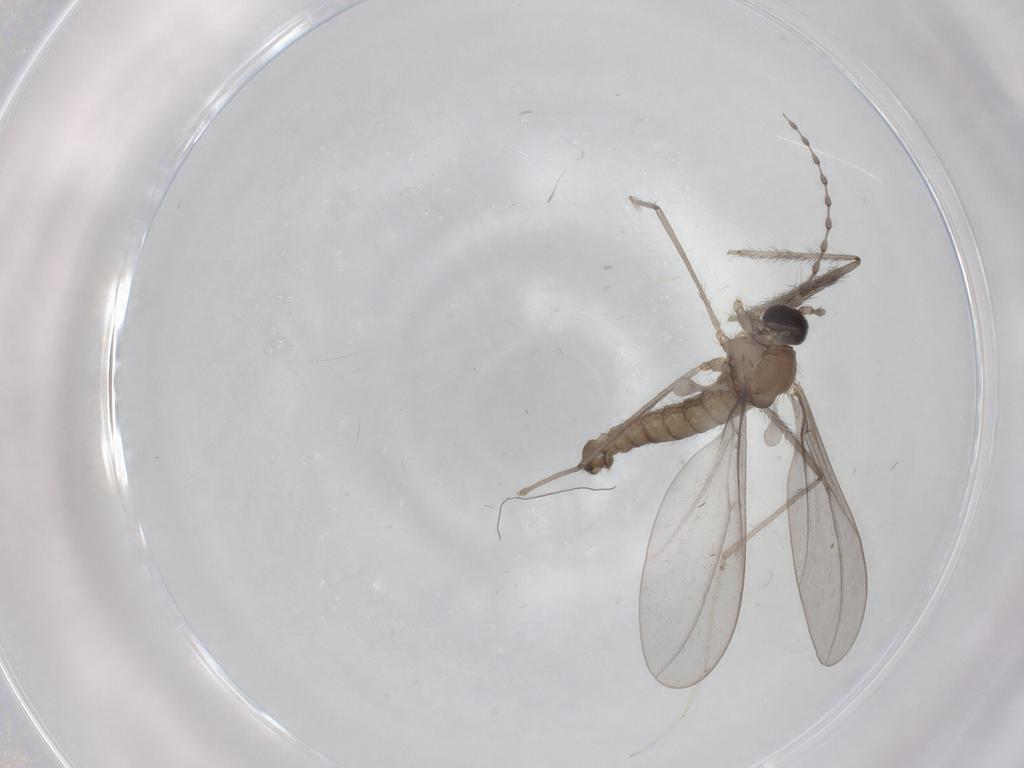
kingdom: Animalia
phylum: Arthropoda
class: Insecta
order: Diptera
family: Cecidomyiidae
